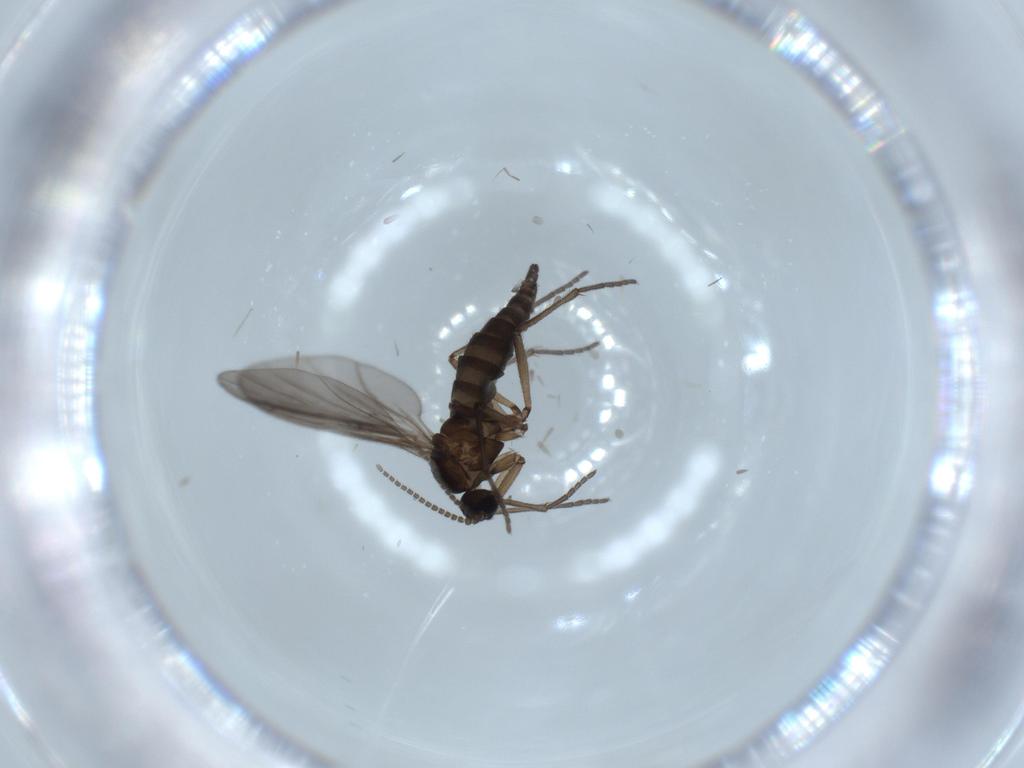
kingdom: Animalia
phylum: Arthropoda
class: Insecta
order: Diptera
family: Sciaridae
